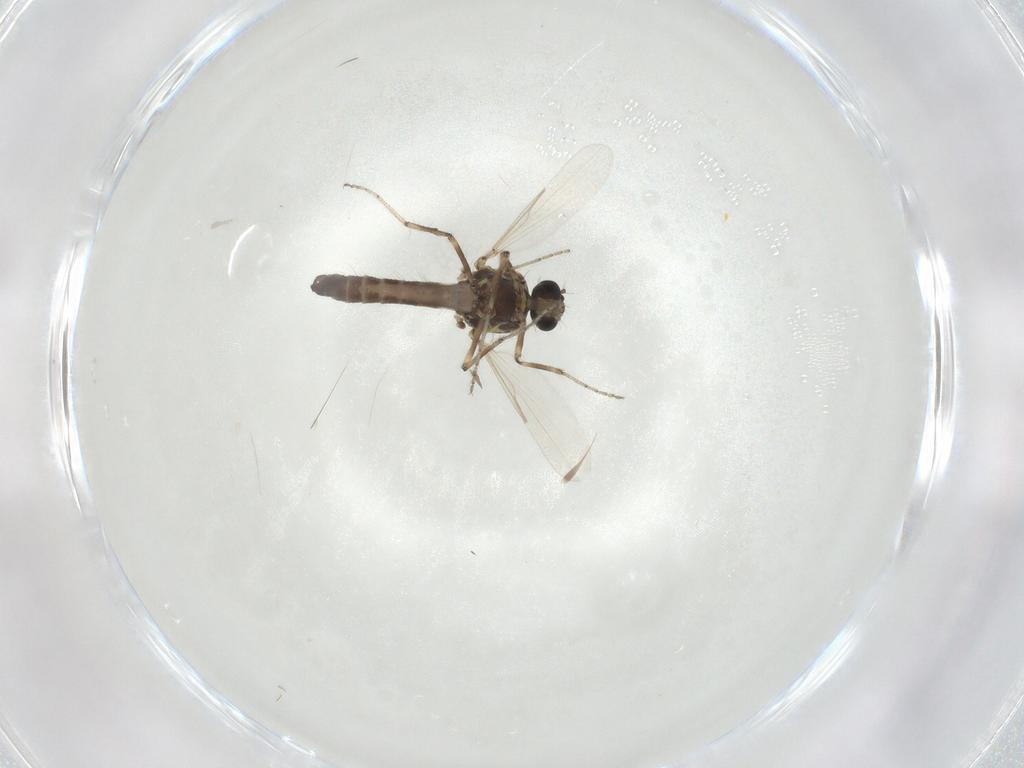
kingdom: Animalia
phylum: Arthropoda
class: Insecta
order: Diptera
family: Ceratopogonidae
